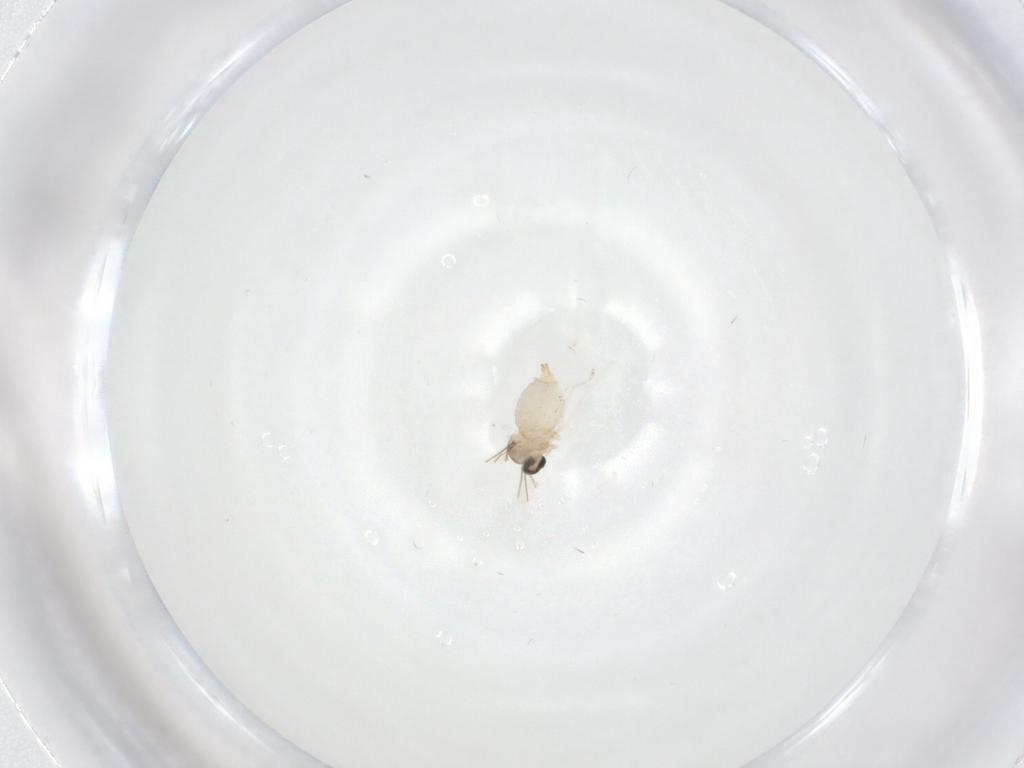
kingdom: Animalia
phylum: Arthropoda
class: Insecta
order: Diptera
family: Cecidomyiidae
